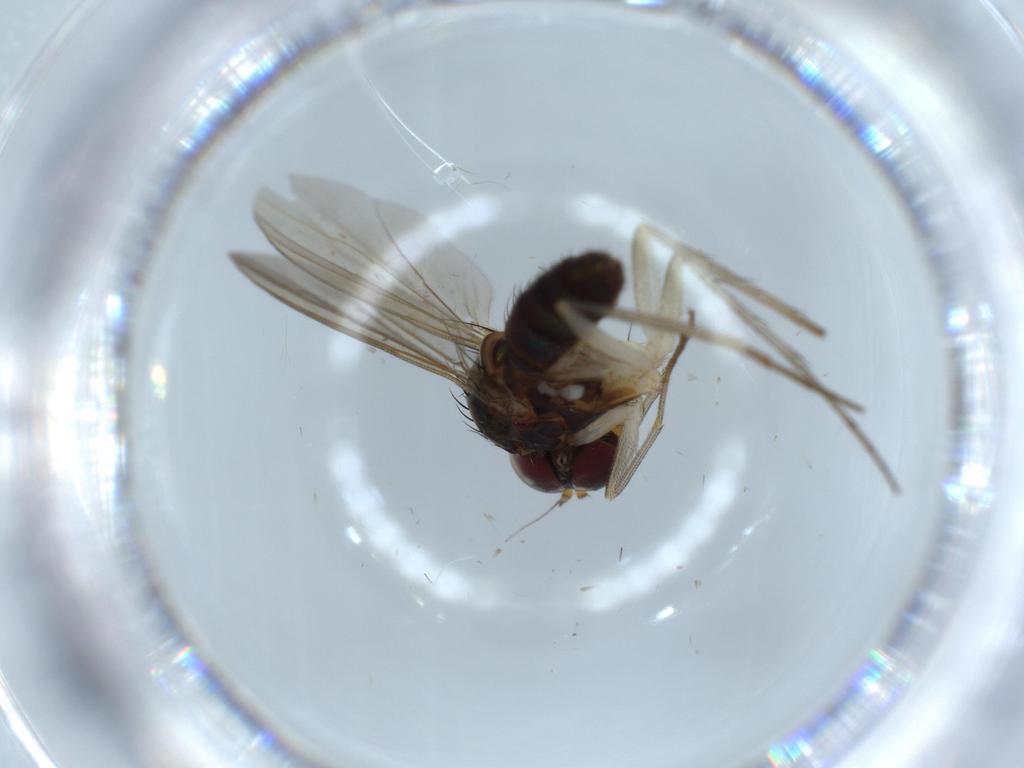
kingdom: Animalia
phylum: Arthropoda
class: Insecta
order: Diptera
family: Dolichopodidae
